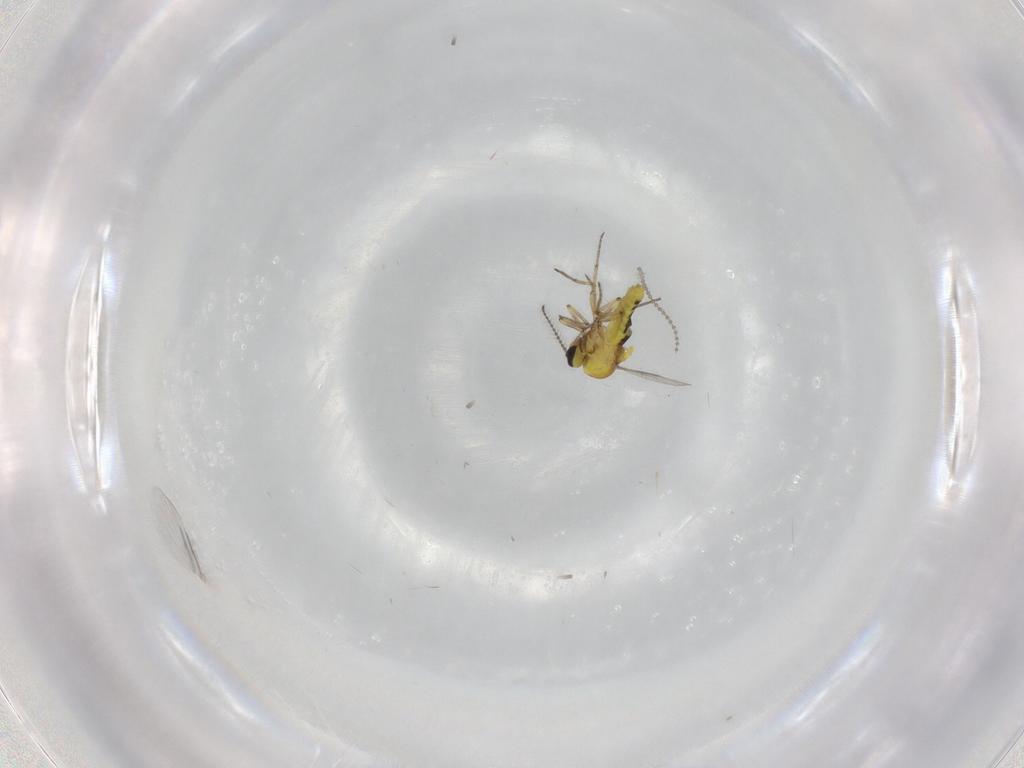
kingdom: Animalia
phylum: Arthropoda
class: Insecta
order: Diptera
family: Cecidomyiidae
